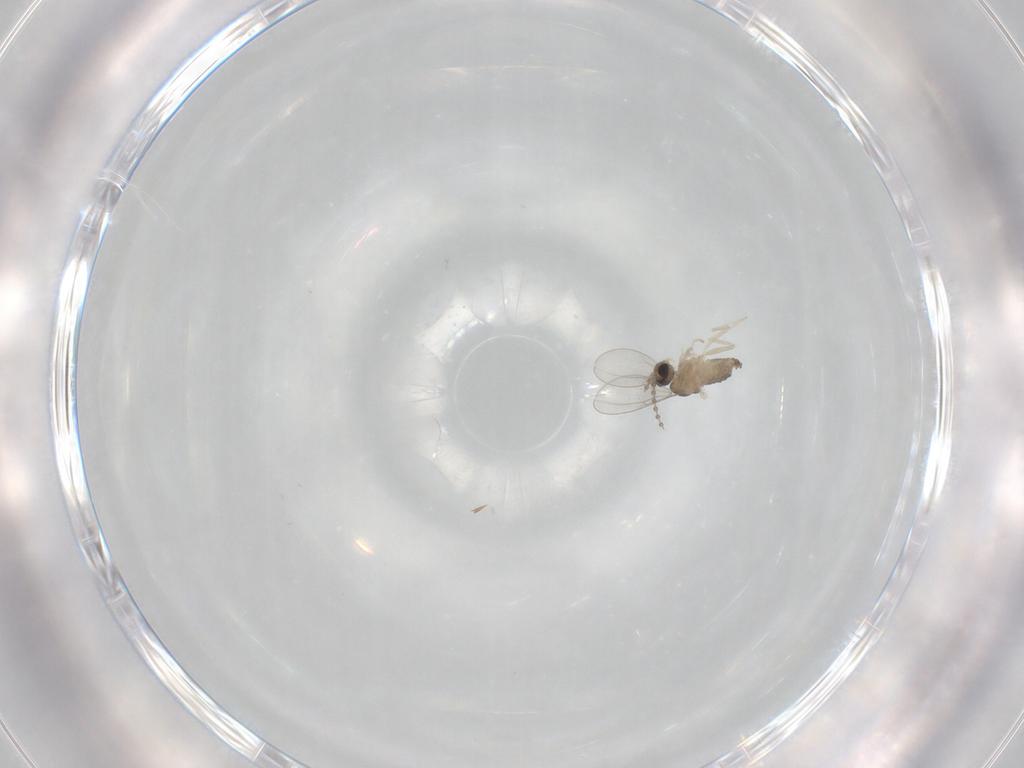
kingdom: Animalia
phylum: Arthropoda
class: Insecta
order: Diptera
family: Cecidomyiidae
